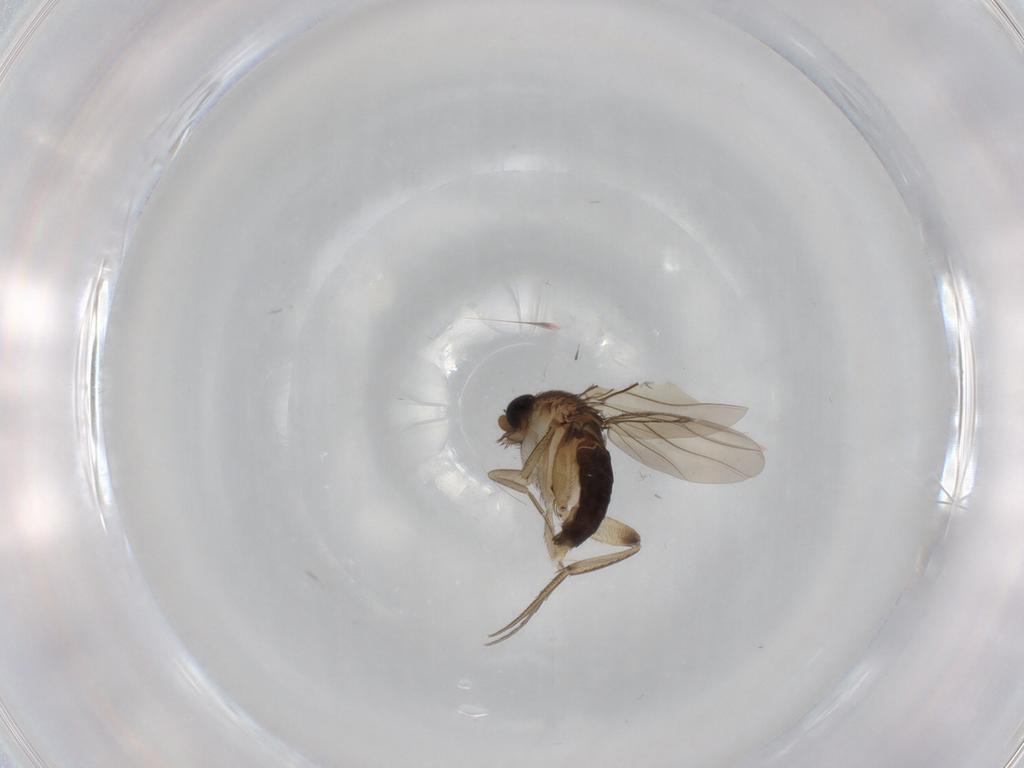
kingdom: Animalia
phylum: Arthropoda
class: Insecta
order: Diptera
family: Phoridae
